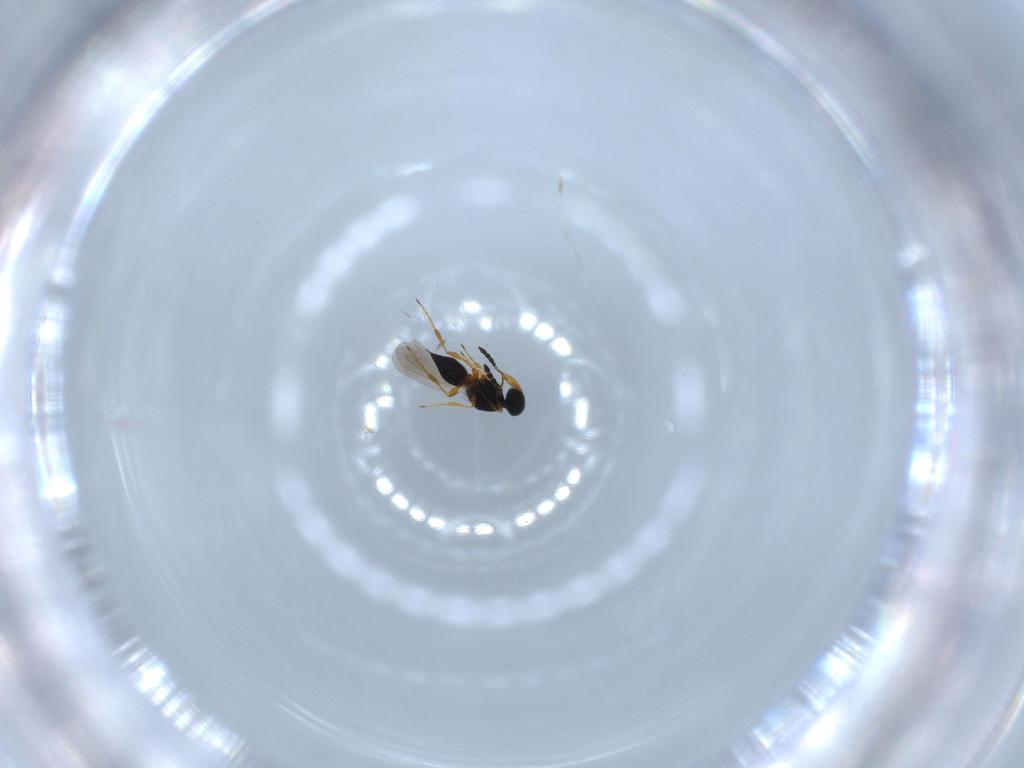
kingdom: Animalia
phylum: Arthropoda
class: Insecta
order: Hymenoptera
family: Platygastridae
